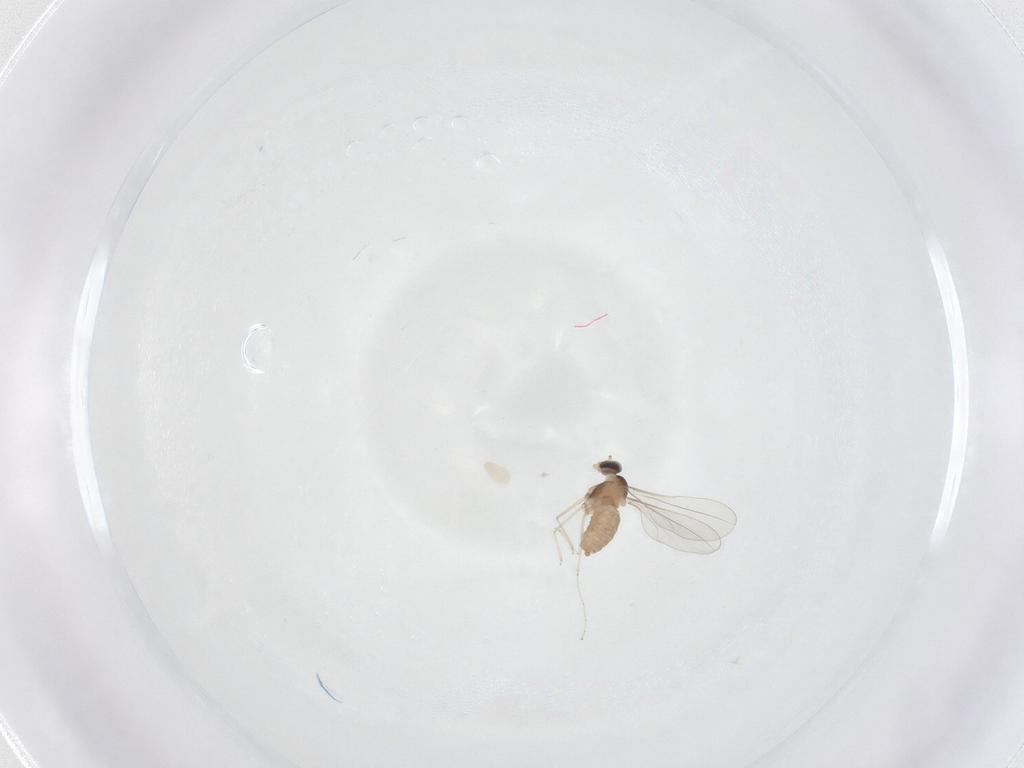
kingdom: Animalia
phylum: Arthropoda
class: Insecta
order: Diptera
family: Cecidomyiidae
